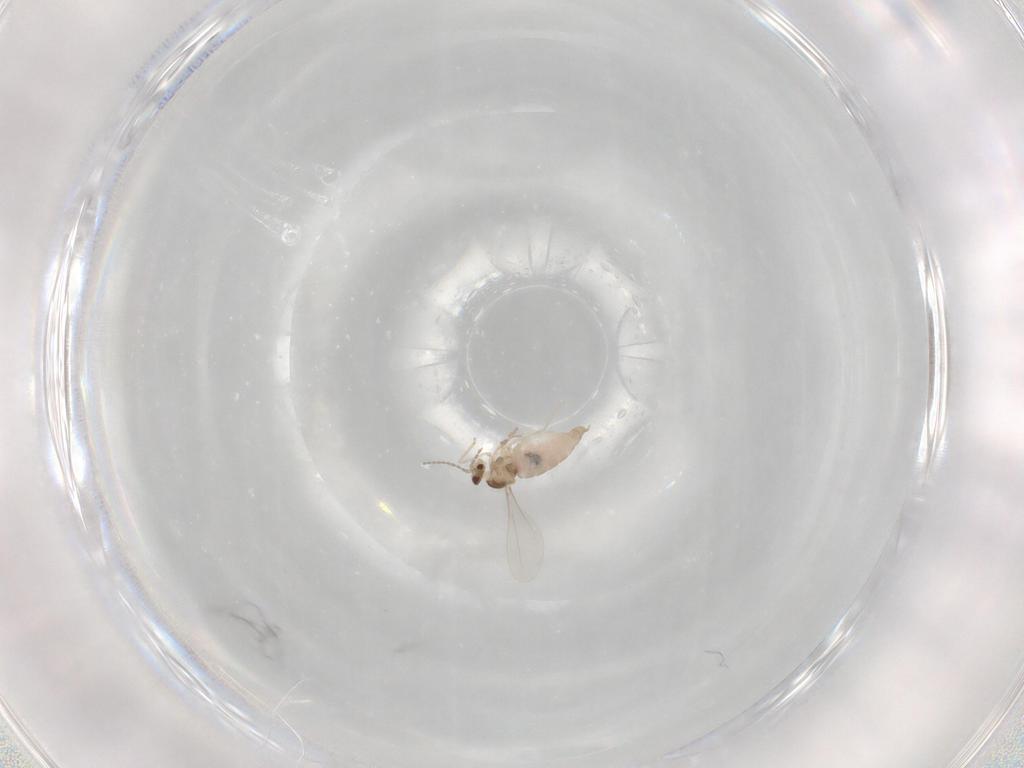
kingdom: Animalia
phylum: Arthropoda
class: Insecta
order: Diptera
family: Cecidomyiidae
